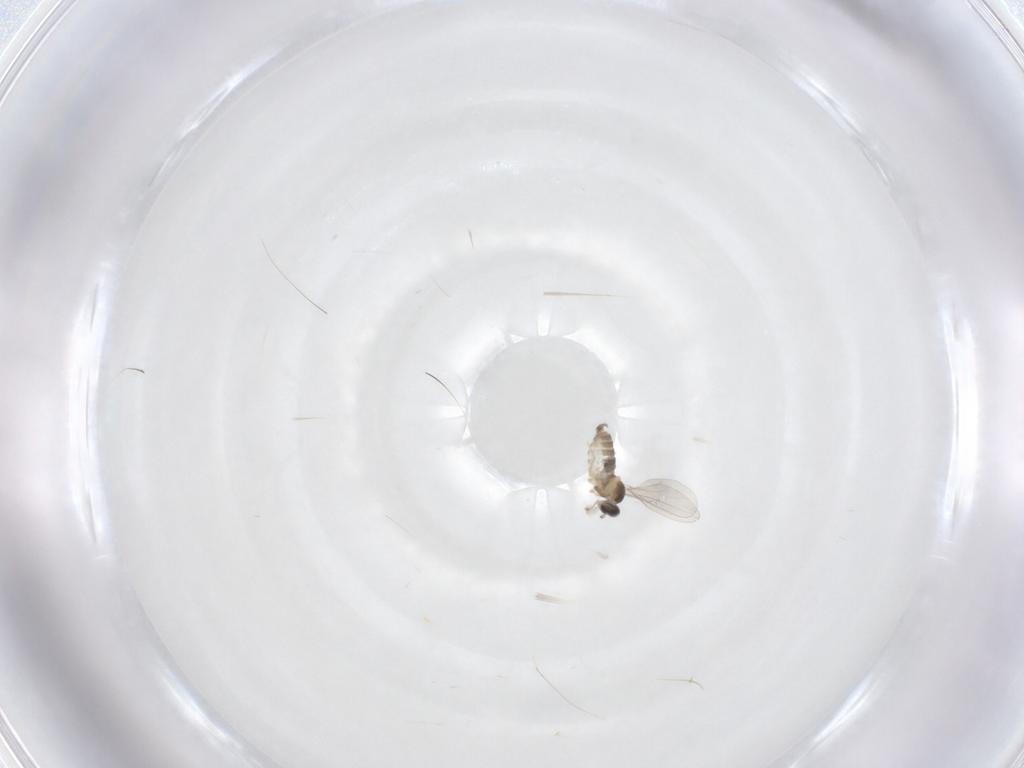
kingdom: Animalia
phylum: Arthropoda
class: Insecta
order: Diptera
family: Cecidomyiidae
